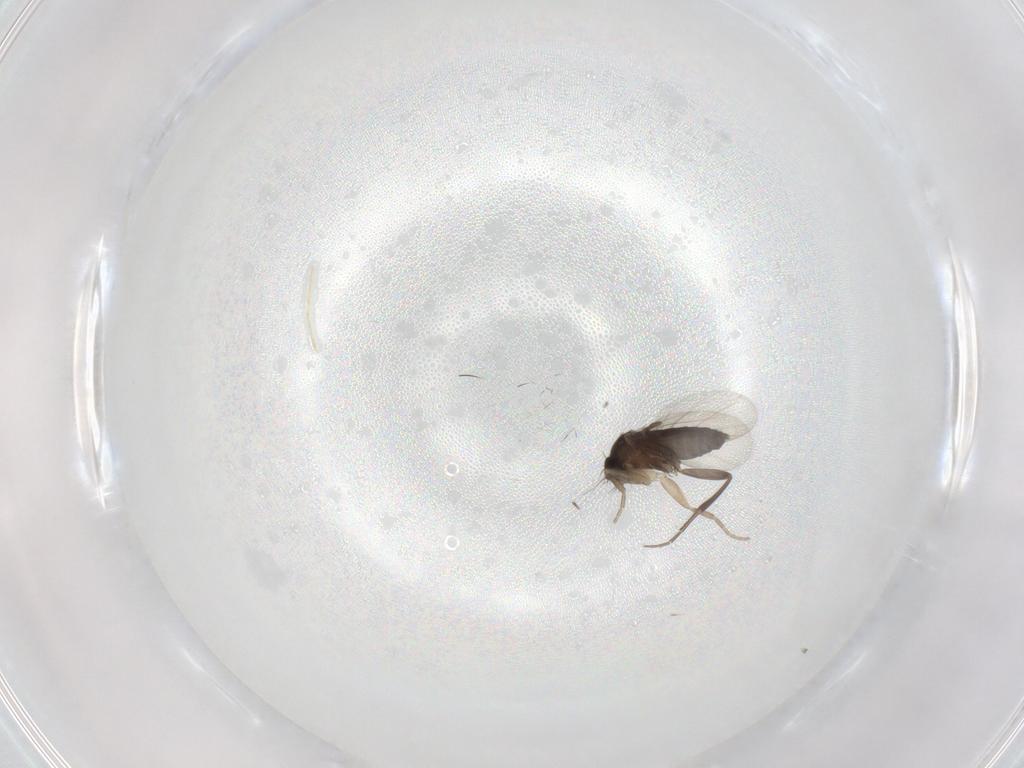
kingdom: Animalia
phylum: Arthropoda
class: Insecta
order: Diptera
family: Phoridae
